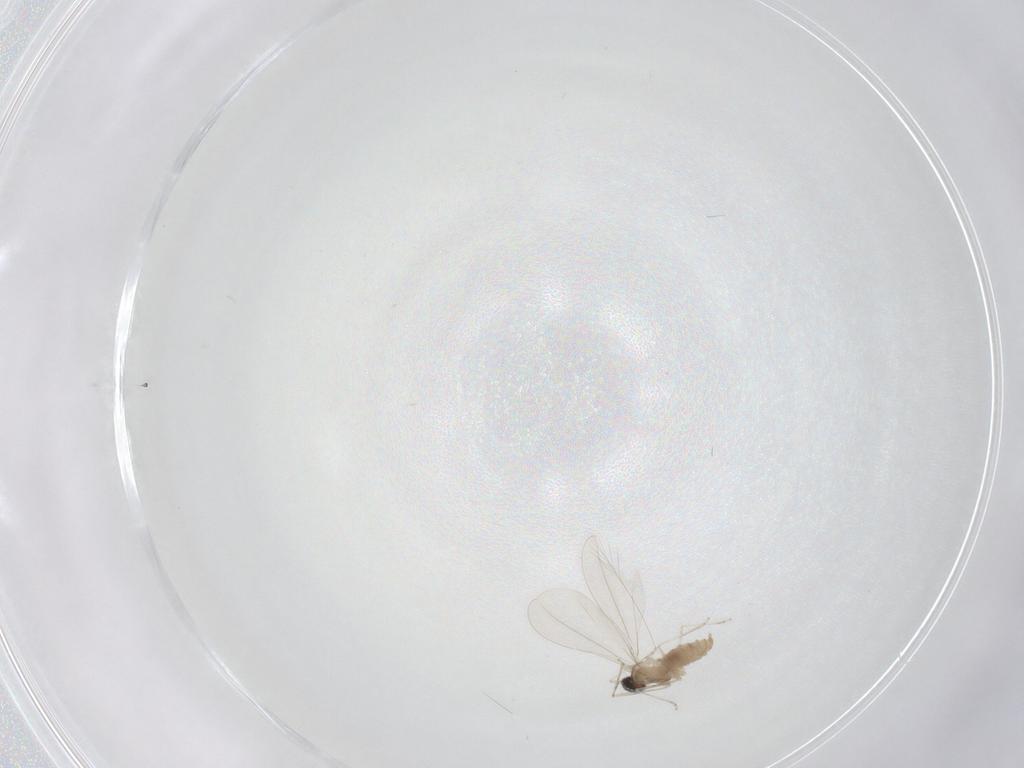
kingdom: Animalia
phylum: Arthropoda
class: Insecta
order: Diptera
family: Cecidomyiidae
